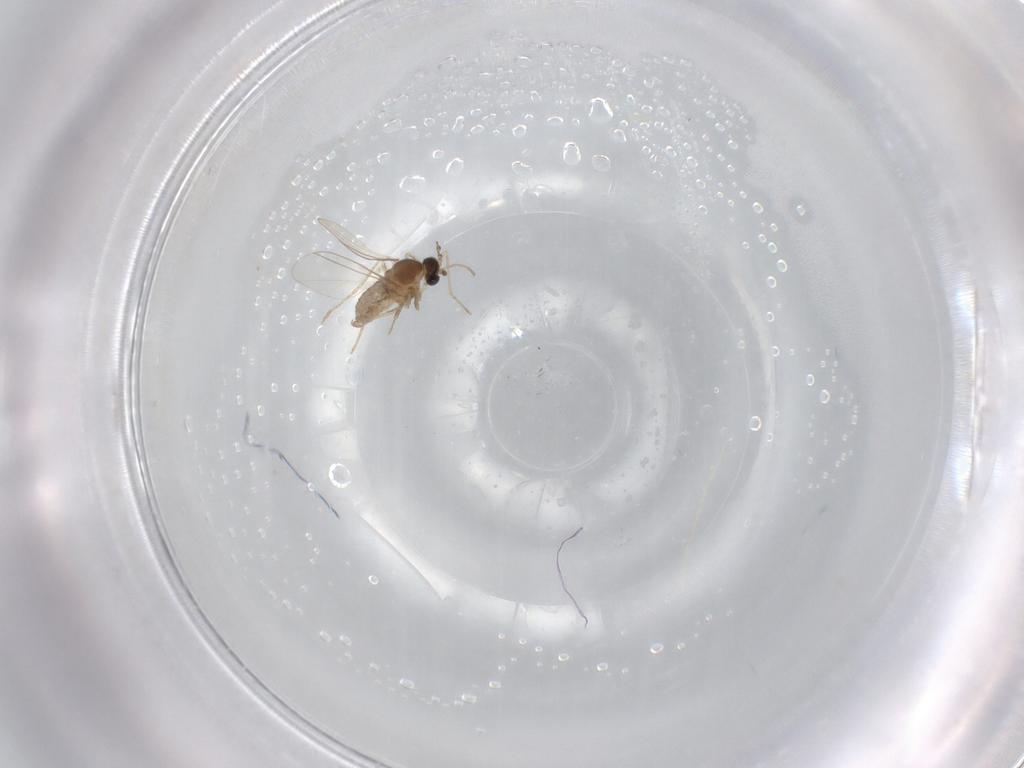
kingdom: Animalia
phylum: Arthropoda
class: Insecta
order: Diptera
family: Cecidomyiidae
